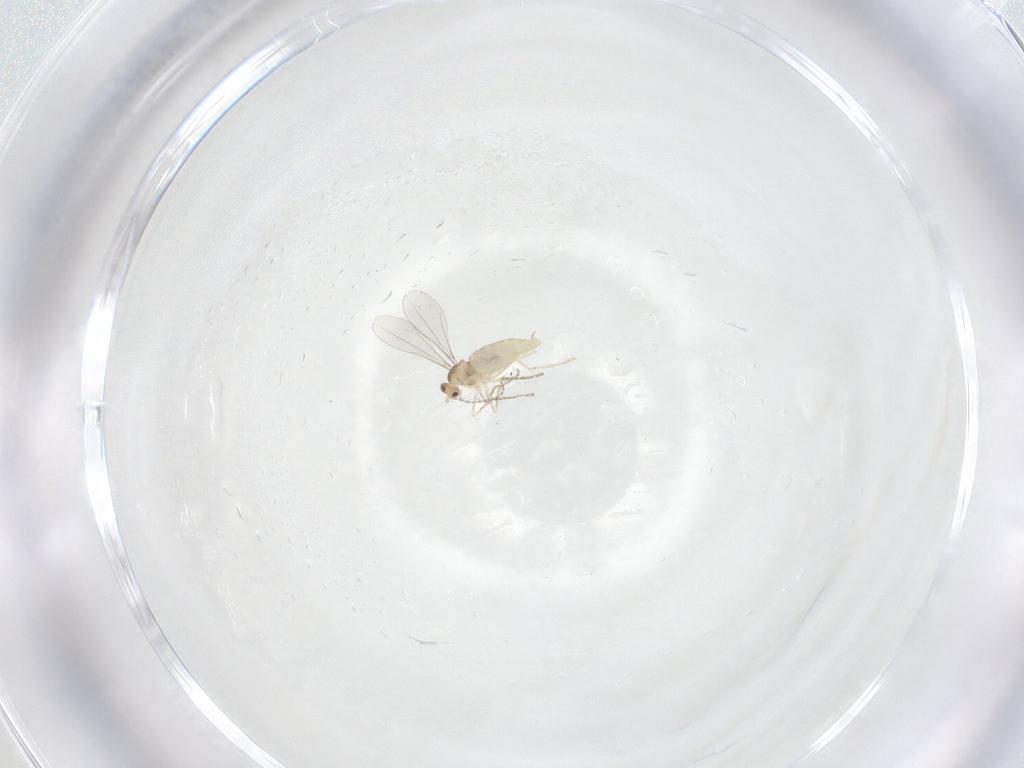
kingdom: Animalia
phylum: Arthropoda
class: Insecta
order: Diptera
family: Cecidomyiidae
